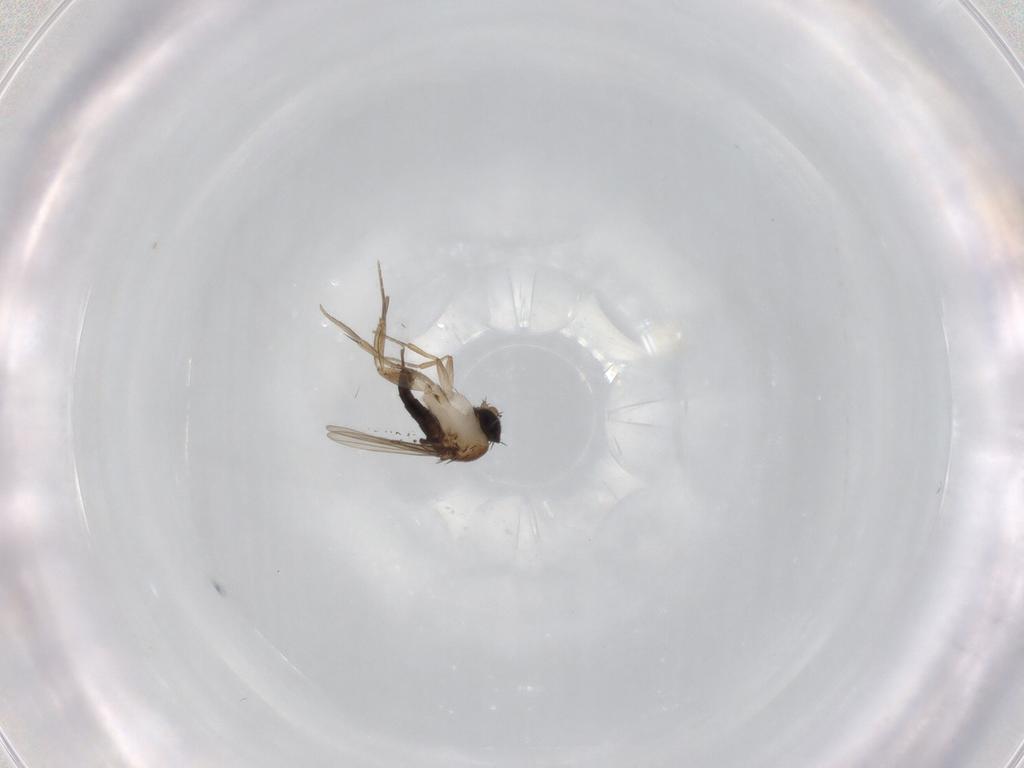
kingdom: Animalia
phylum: Arthropoda
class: Insecta
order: Diptera
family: Phoridae
